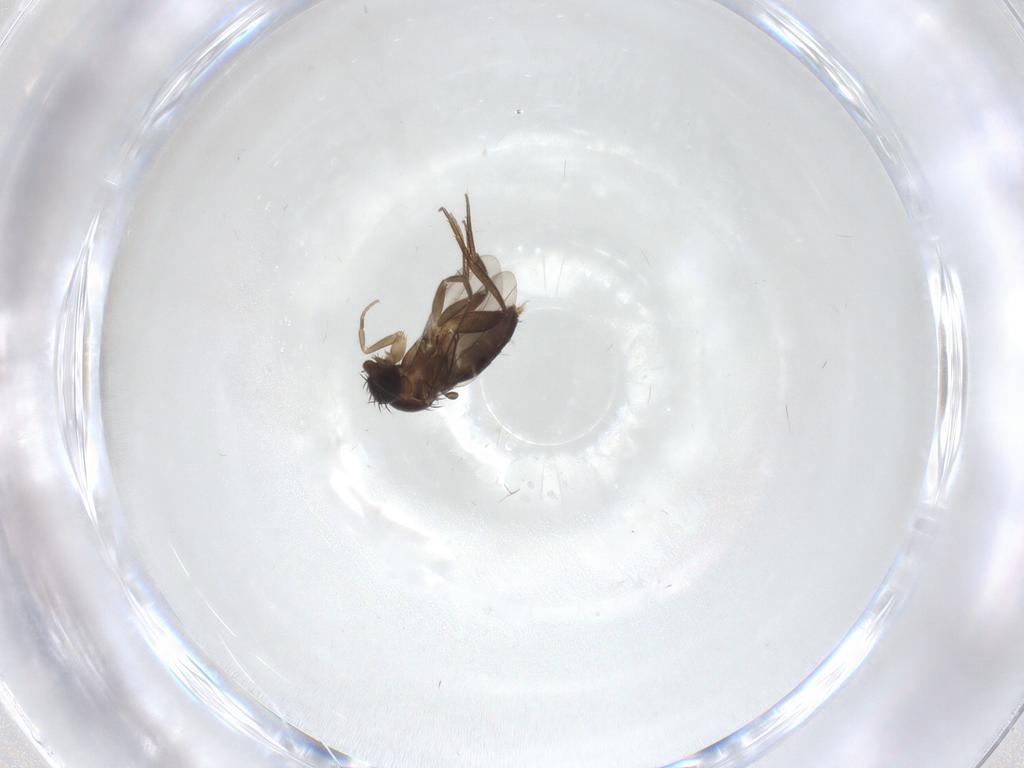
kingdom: Animalia
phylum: Arthropoda
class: Insecta
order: Diptera
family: Phoridae
